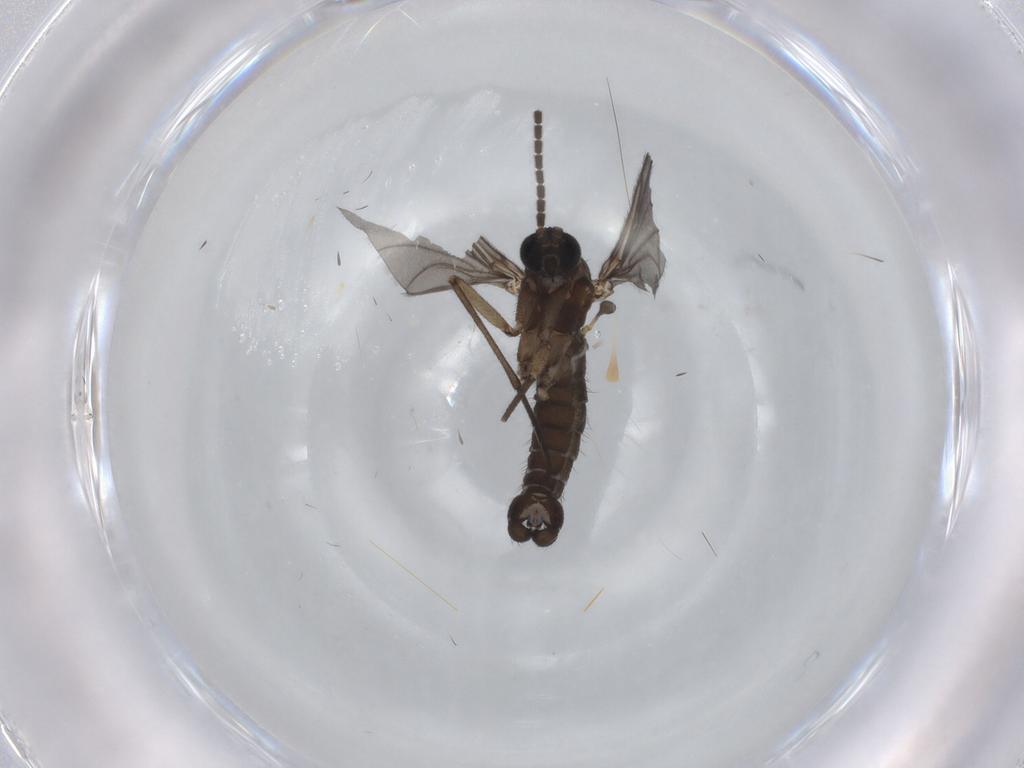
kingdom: Animalia
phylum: Arthropoda
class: Insecta
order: Diptera
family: Sciaridae
